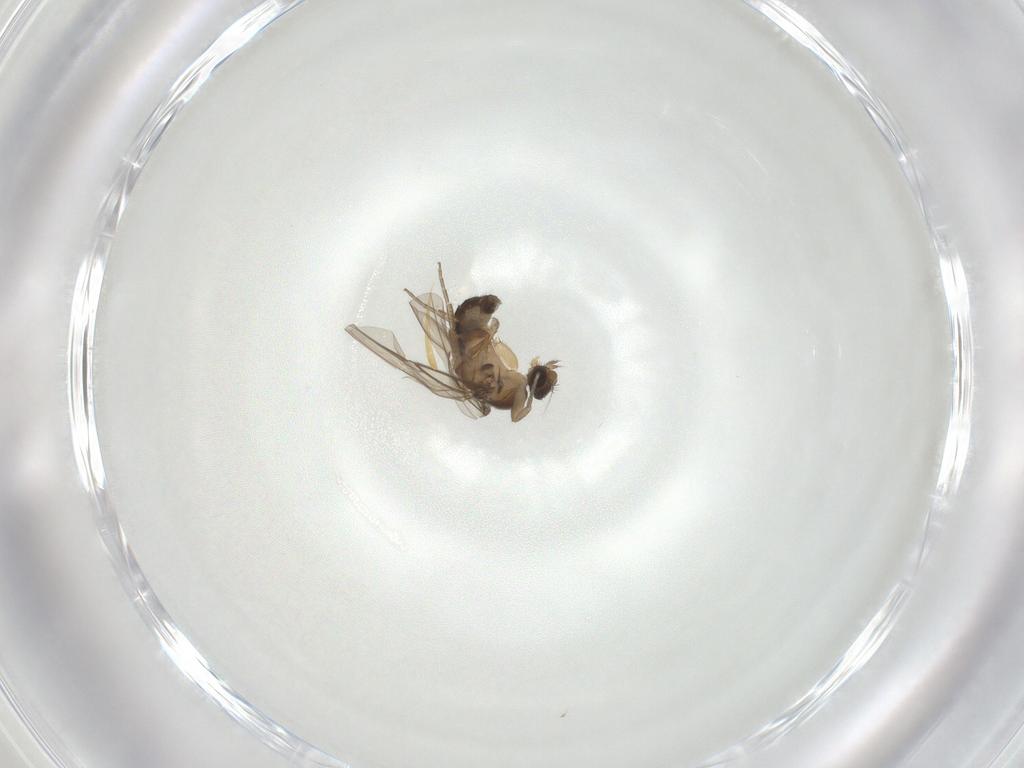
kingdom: Animalia
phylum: Arthropoda
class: Insecta
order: Diptera
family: Phoridae
